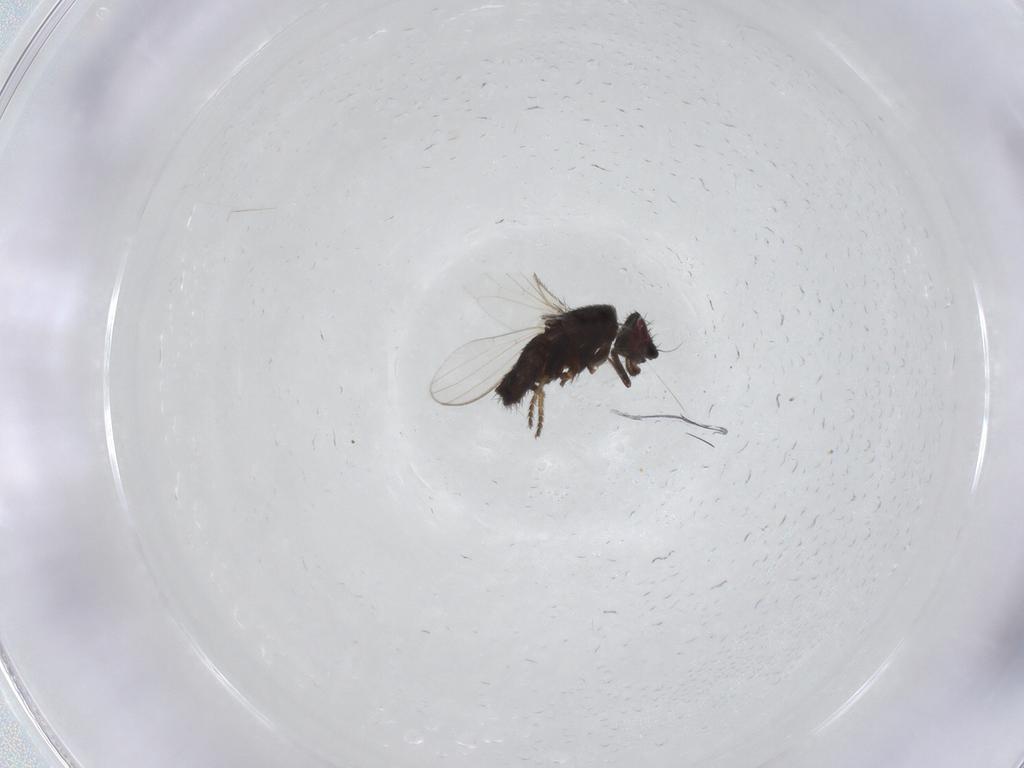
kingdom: Animalia
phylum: Arthropoda
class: Insecta
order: Diptera
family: Milichiidae
